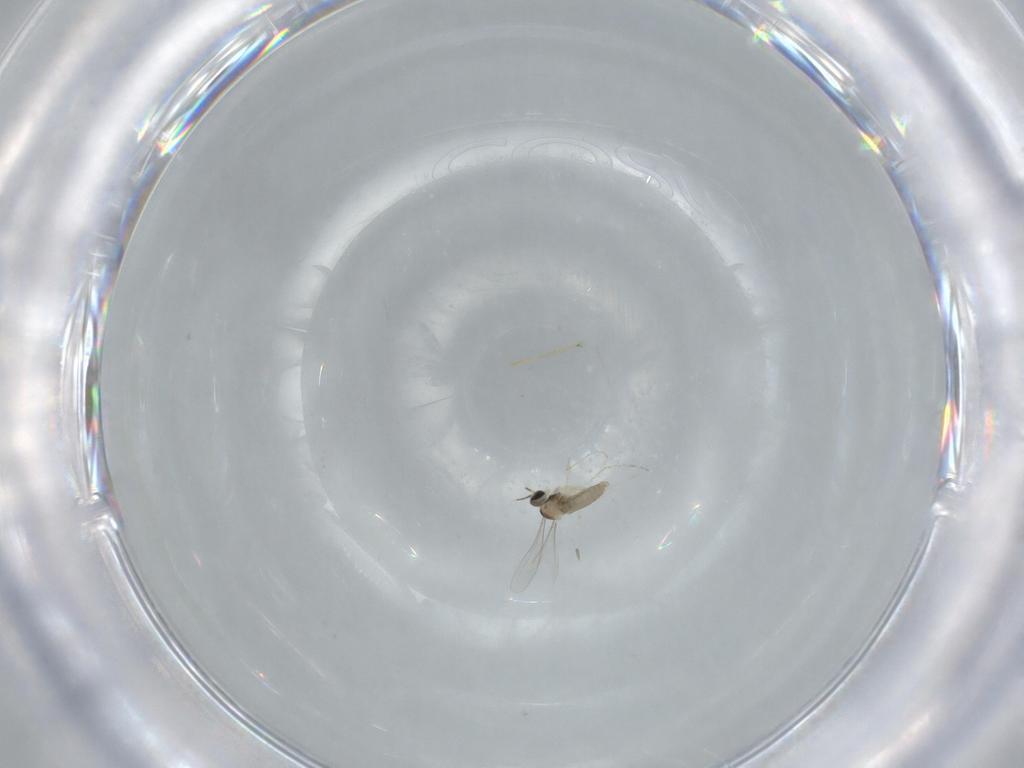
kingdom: Animalia
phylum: Arthropoda
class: Insecta
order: Diptera
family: Cecidomyiidae
